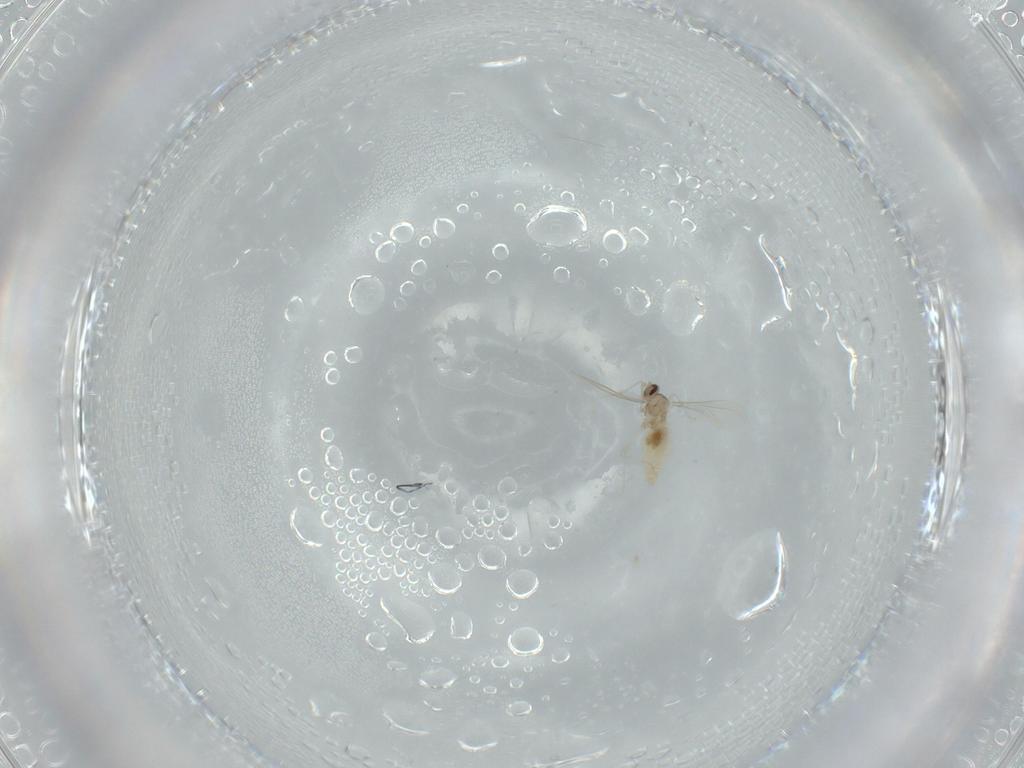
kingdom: Animalia
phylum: Arthropoda
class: Insecta
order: Diptera
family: Cecidomyiidae
